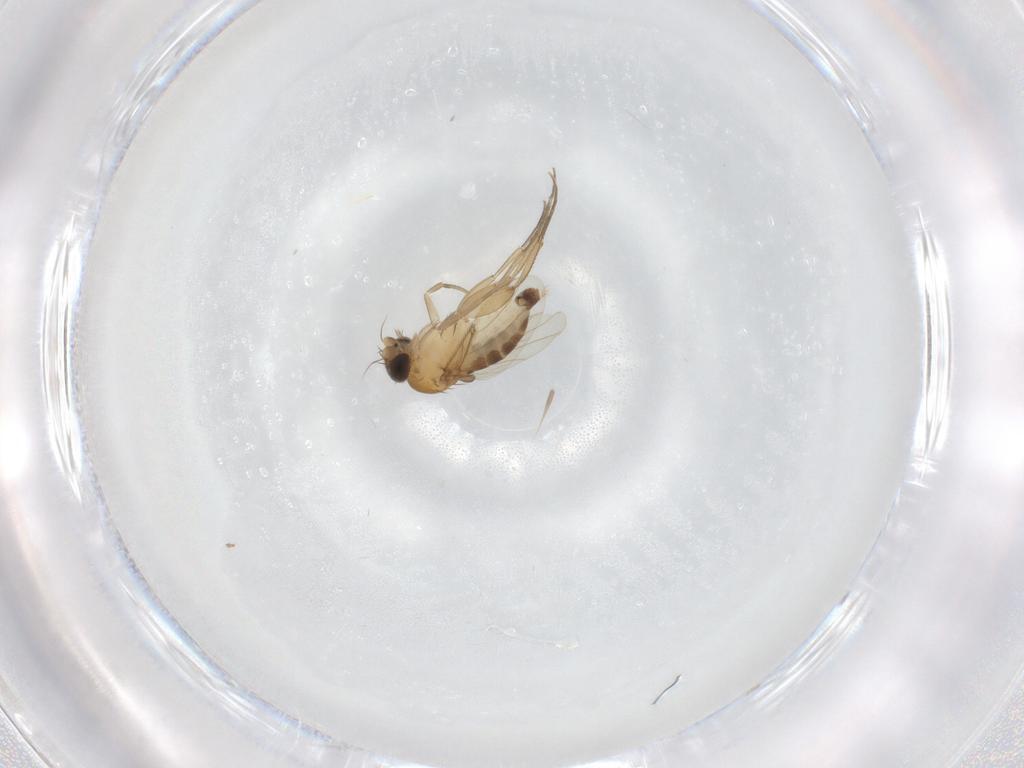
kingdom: Animalia
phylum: Arthropoda
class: Insecta
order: Diptera
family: Phoridae
